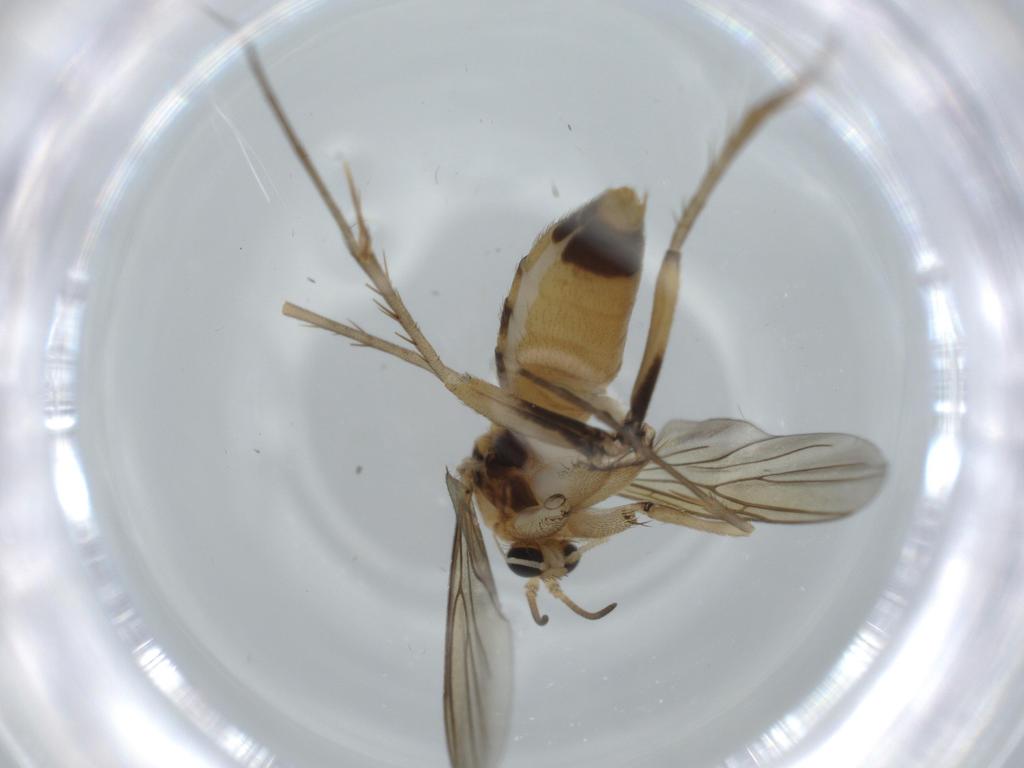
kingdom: Animalia
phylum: Arthropoda
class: Insecta
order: Diptera
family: Mycetophilidae
